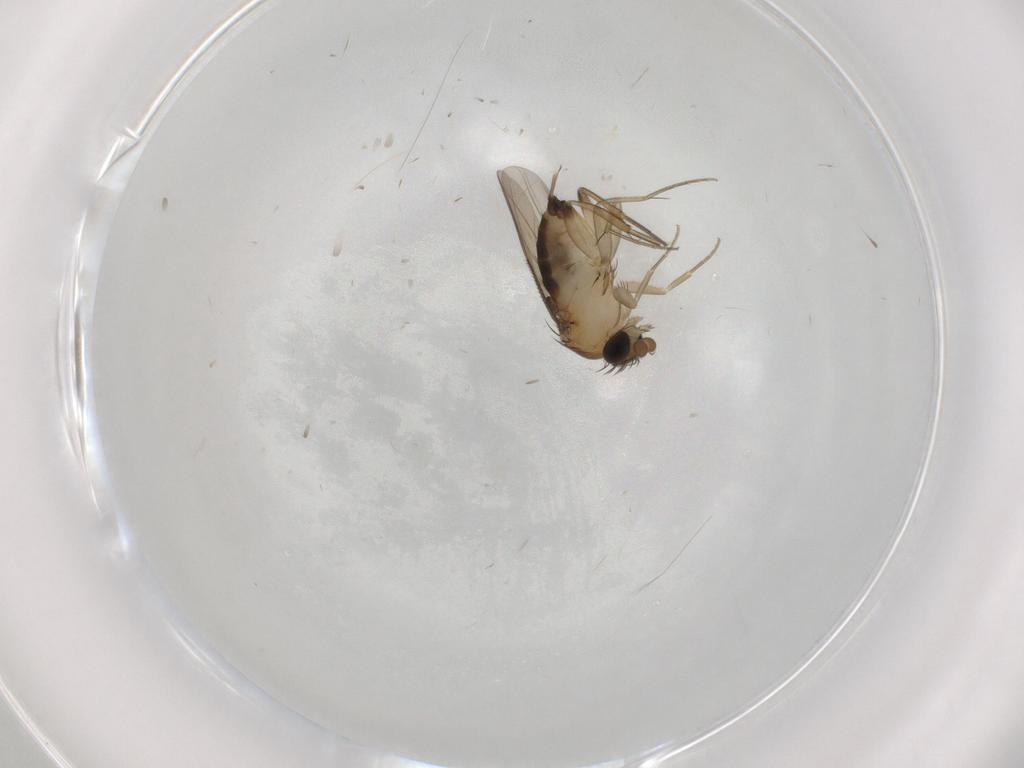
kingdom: Animalia
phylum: Arthropoda
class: Insecta
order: Diptera
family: Phoridae
